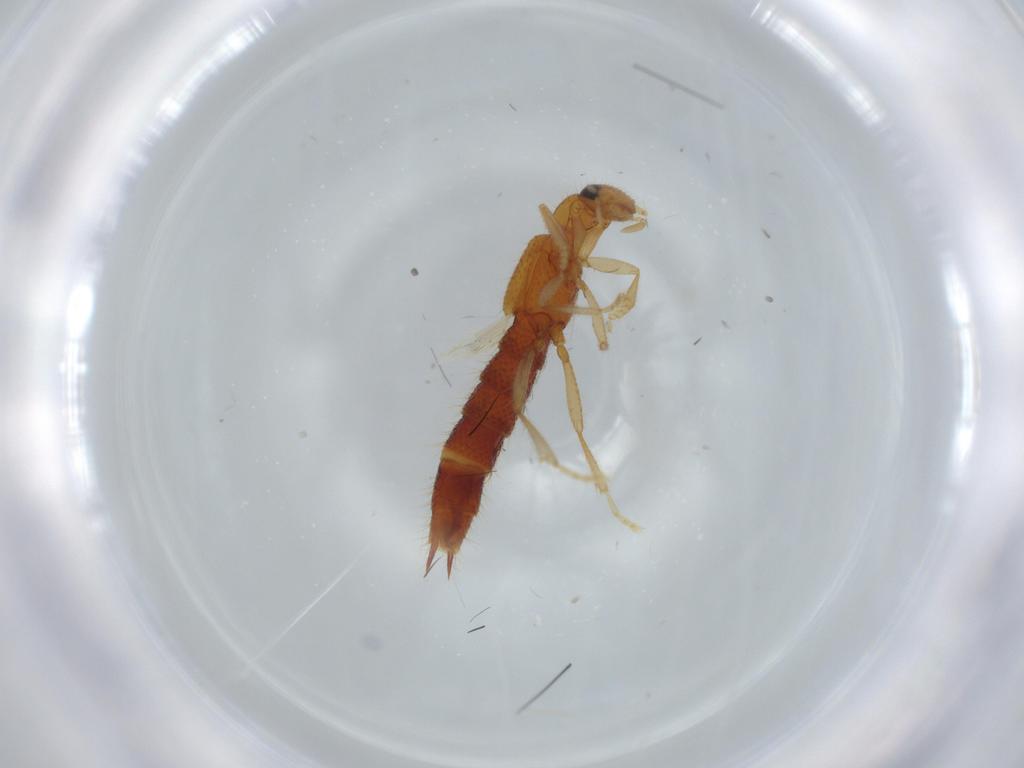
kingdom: Animalia
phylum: Arthropoda
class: Insecta
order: Coleoptera
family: Staphylinidae
